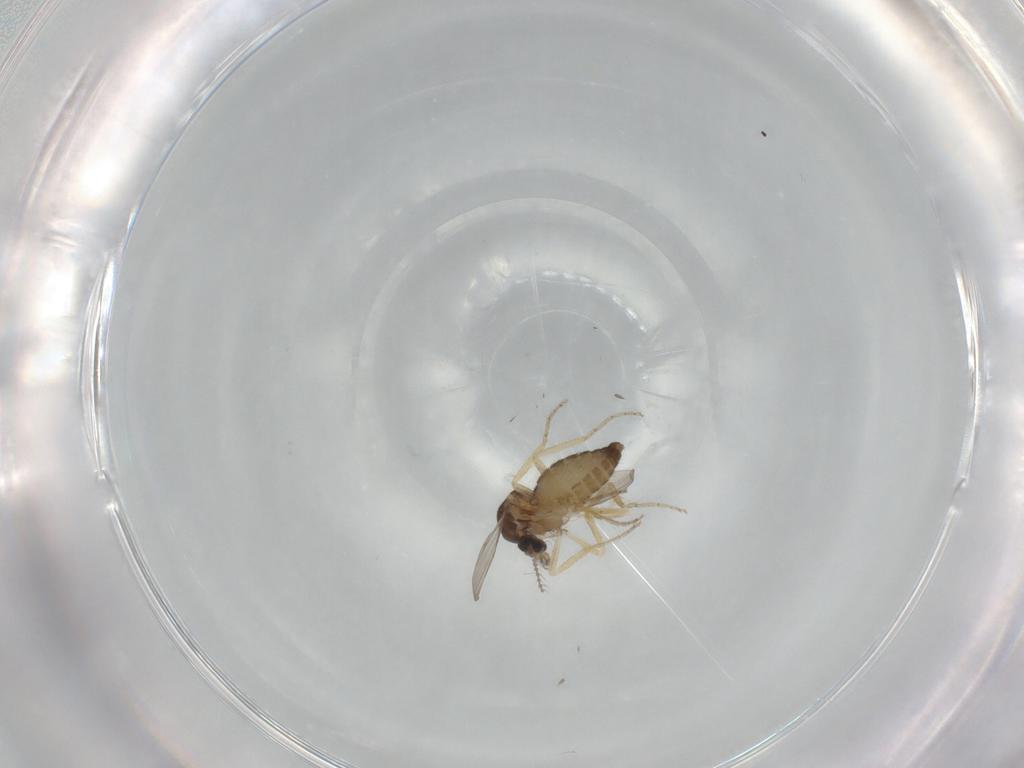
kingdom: Animalia
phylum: Arthropoda
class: Insecta
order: Diptera
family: Ceratopogonidae
